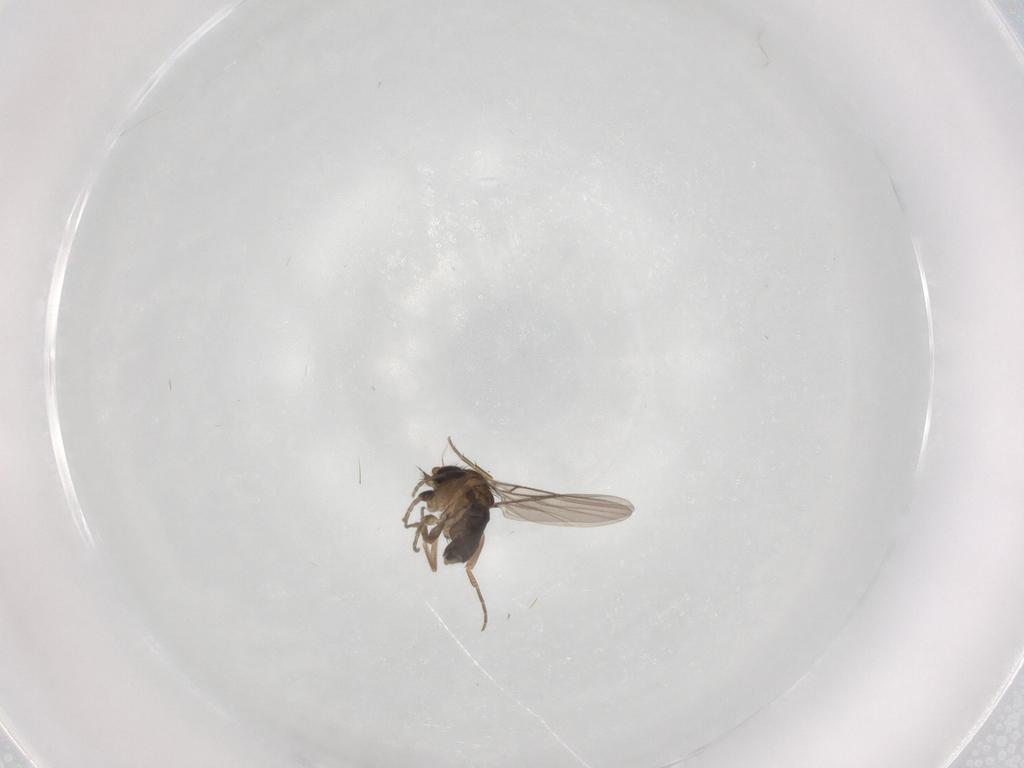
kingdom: Animalia
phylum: Arthropoda
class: Insecta
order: Diptera
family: Phoridae
